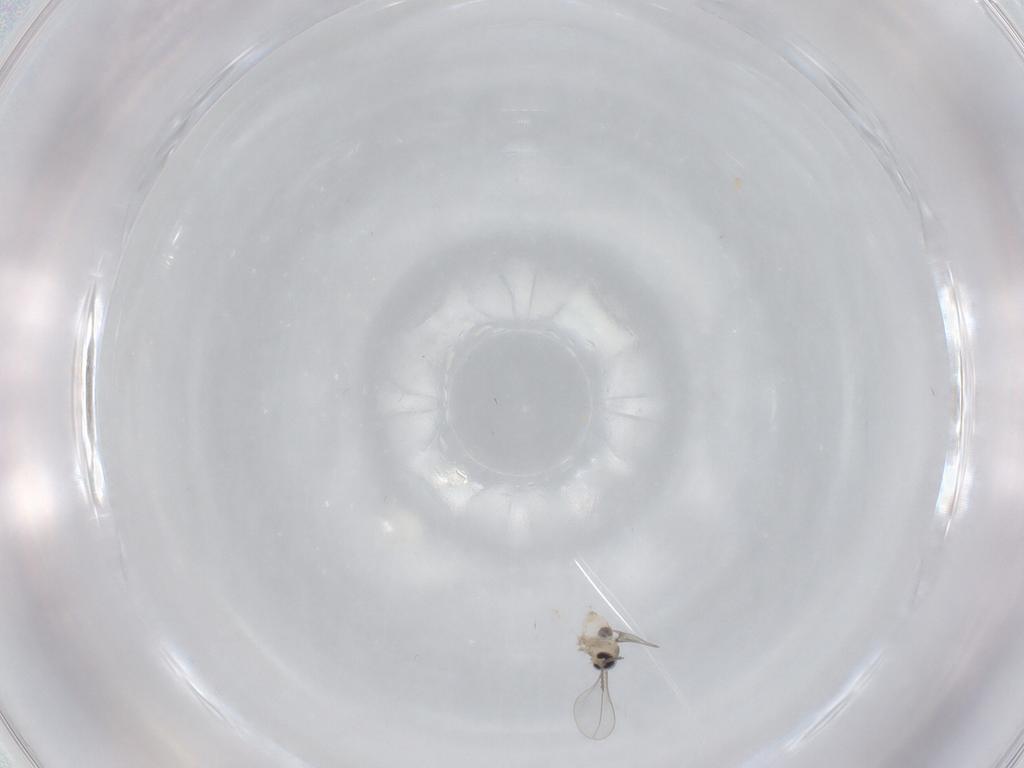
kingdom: Animalia
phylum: Arthropoda
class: Insecta
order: Diptera
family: Cecidomyiidae
